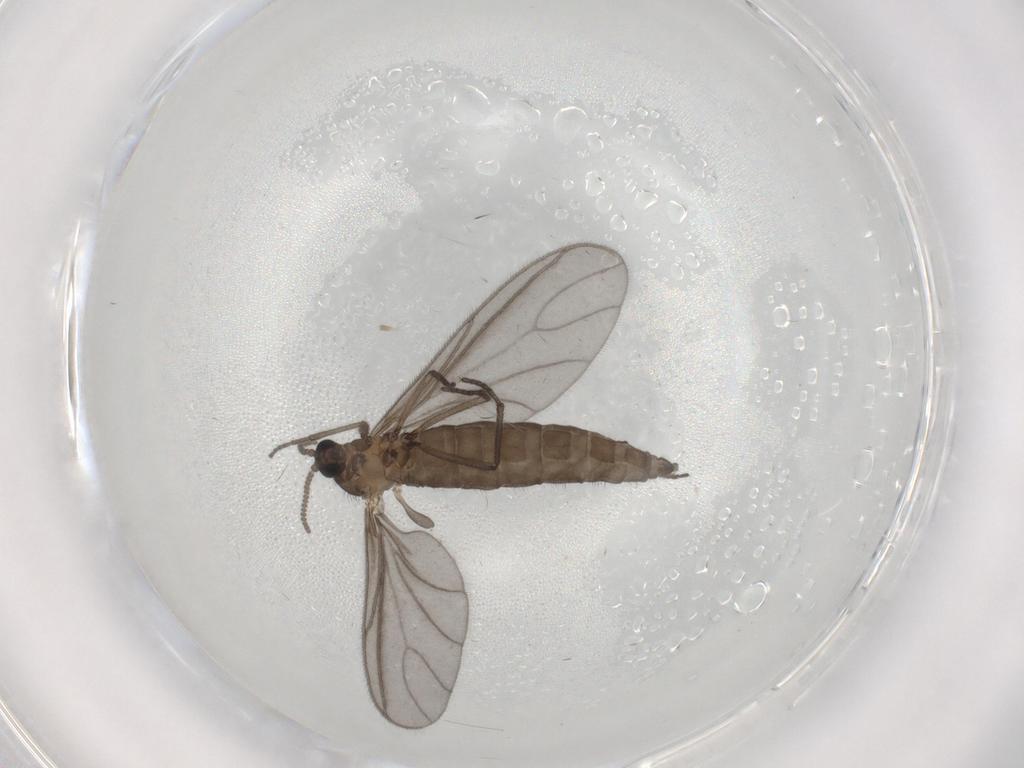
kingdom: Animalia
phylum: Arthropoda
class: Insecta
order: Diptera
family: Sciaridae
